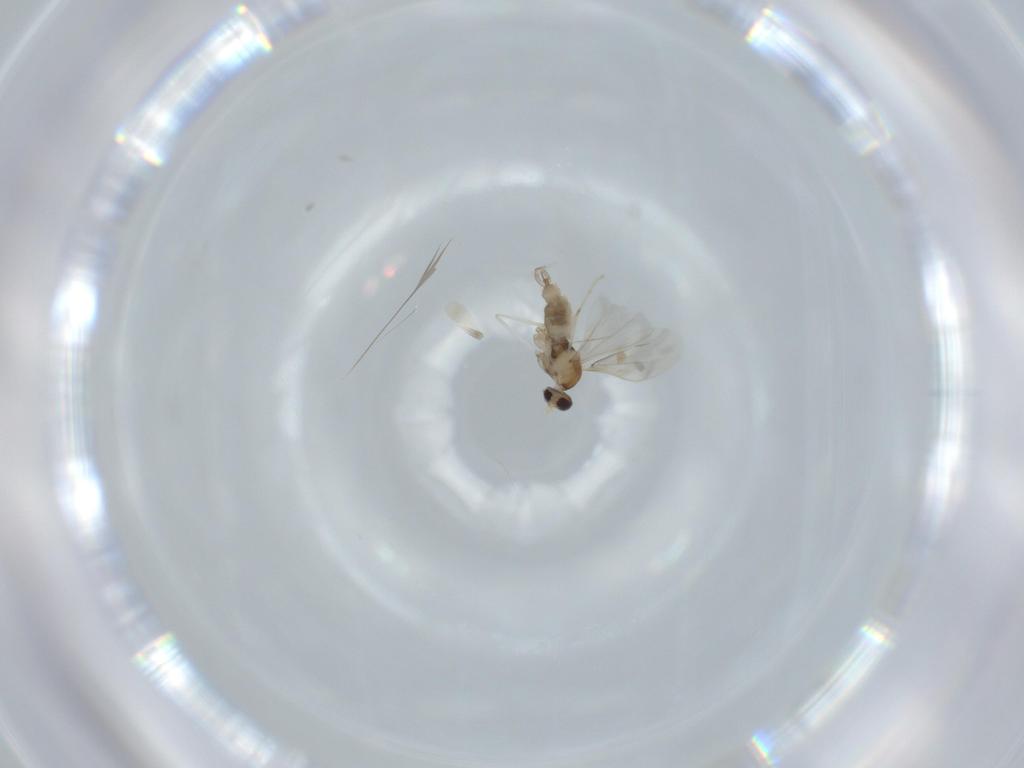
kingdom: Animalia
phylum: Arthropoda
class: Insecta
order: Diptera
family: Cecidomyiidae
